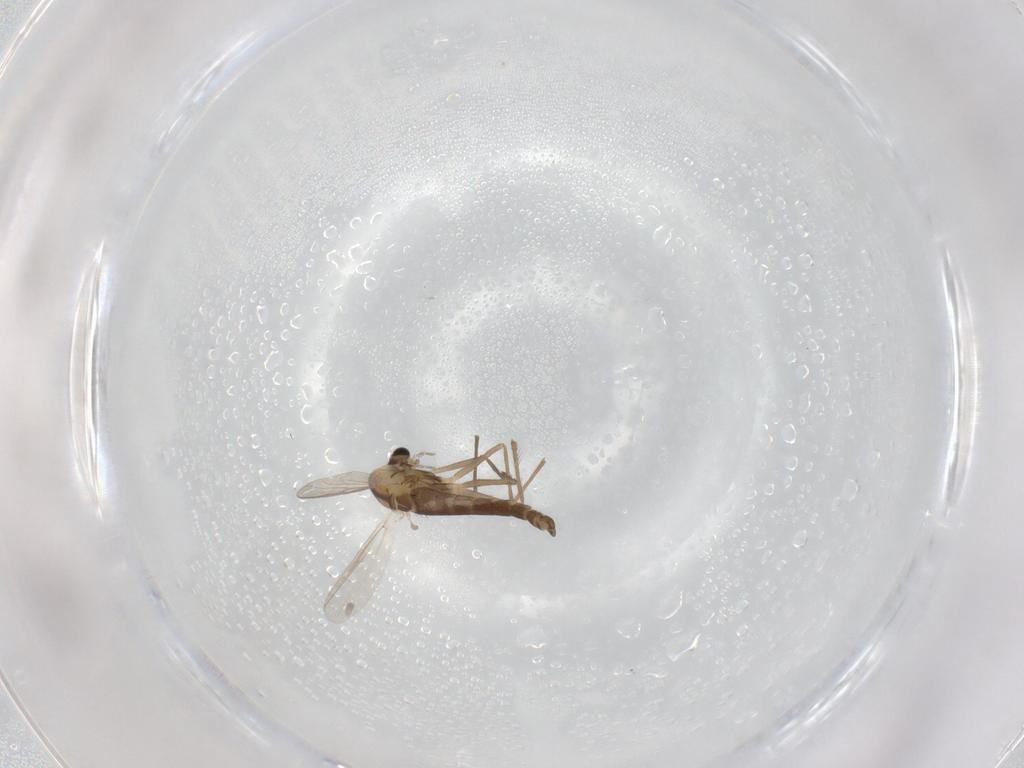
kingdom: Animalia
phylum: Arthropoda
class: Insecta
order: Diptera
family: Chironomidae
